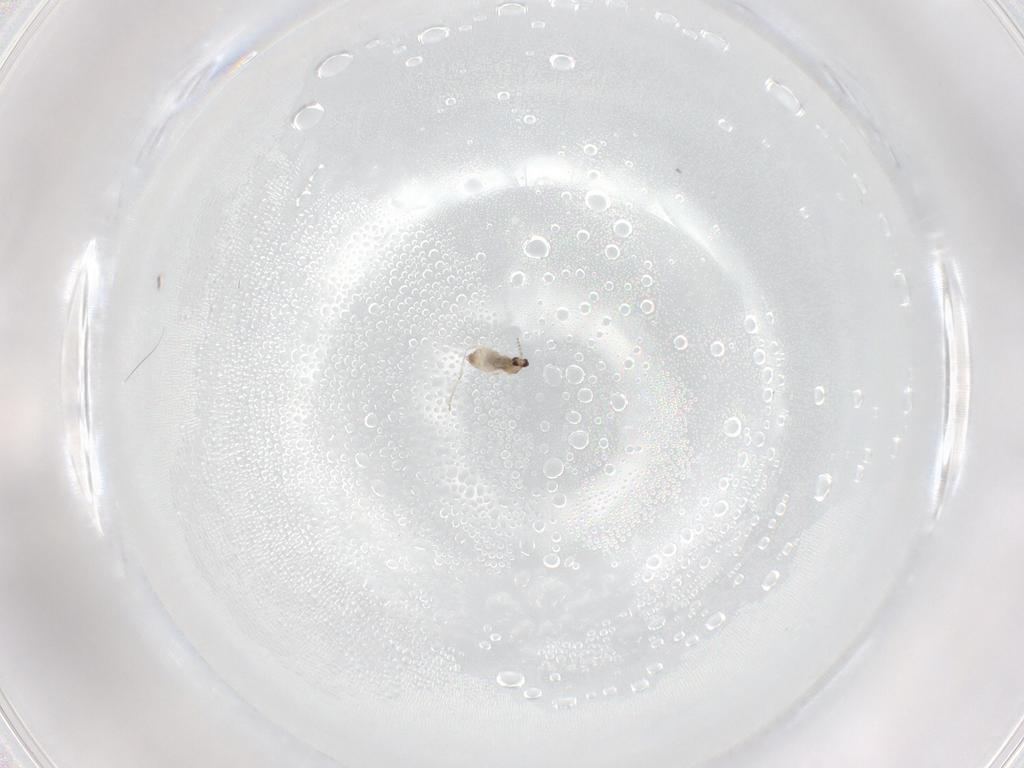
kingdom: Animalia
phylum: Arthropoda
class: Insecta
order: Diptera
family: Cecidomyiidae
